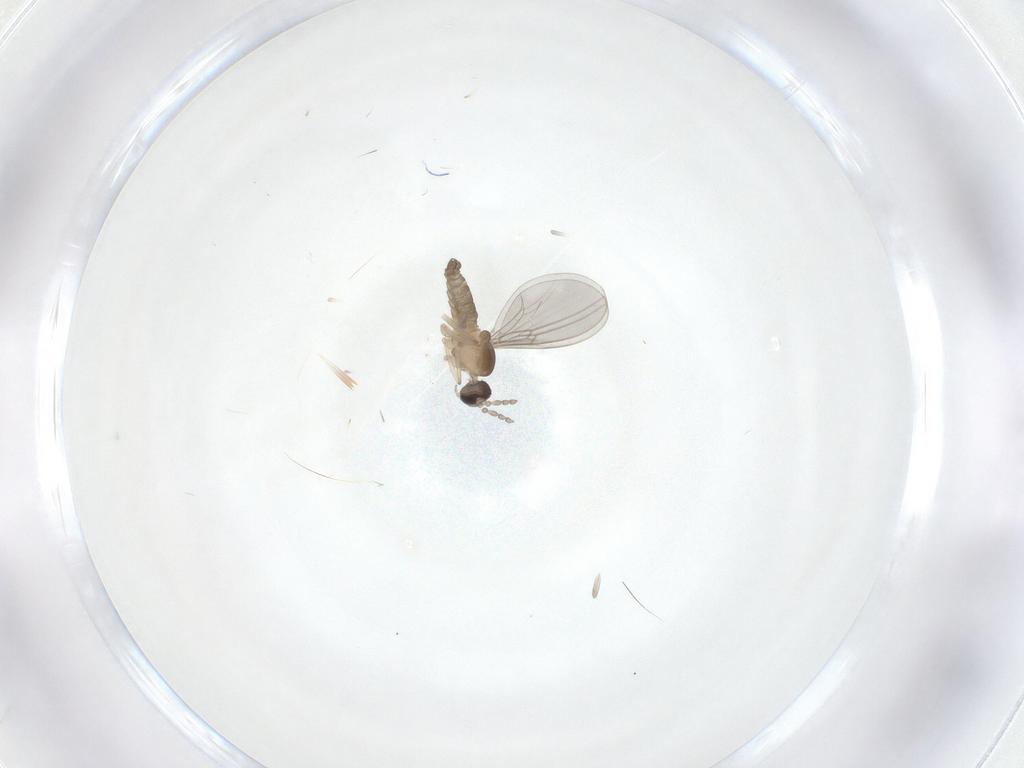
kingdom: Animalia
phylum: Arthropoda
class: Insecta
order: Diptera
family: Cecidomyiidae
